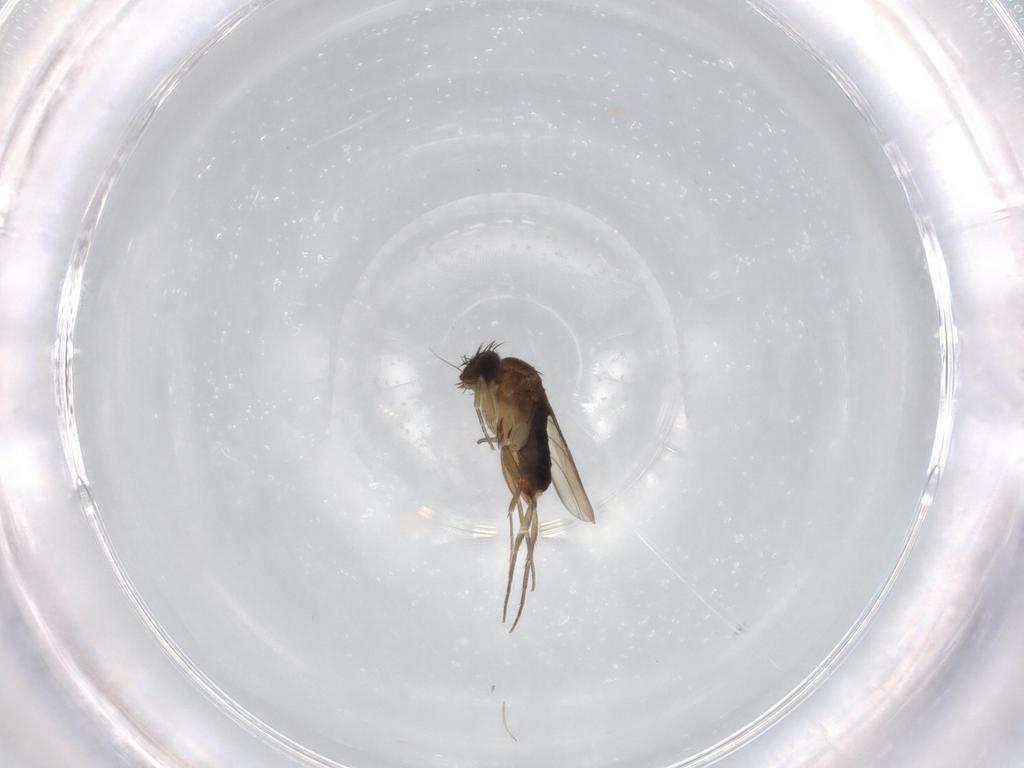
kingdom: Animalia
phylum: Arthropoda
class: Insecta
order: Diptera
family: Phoridae
